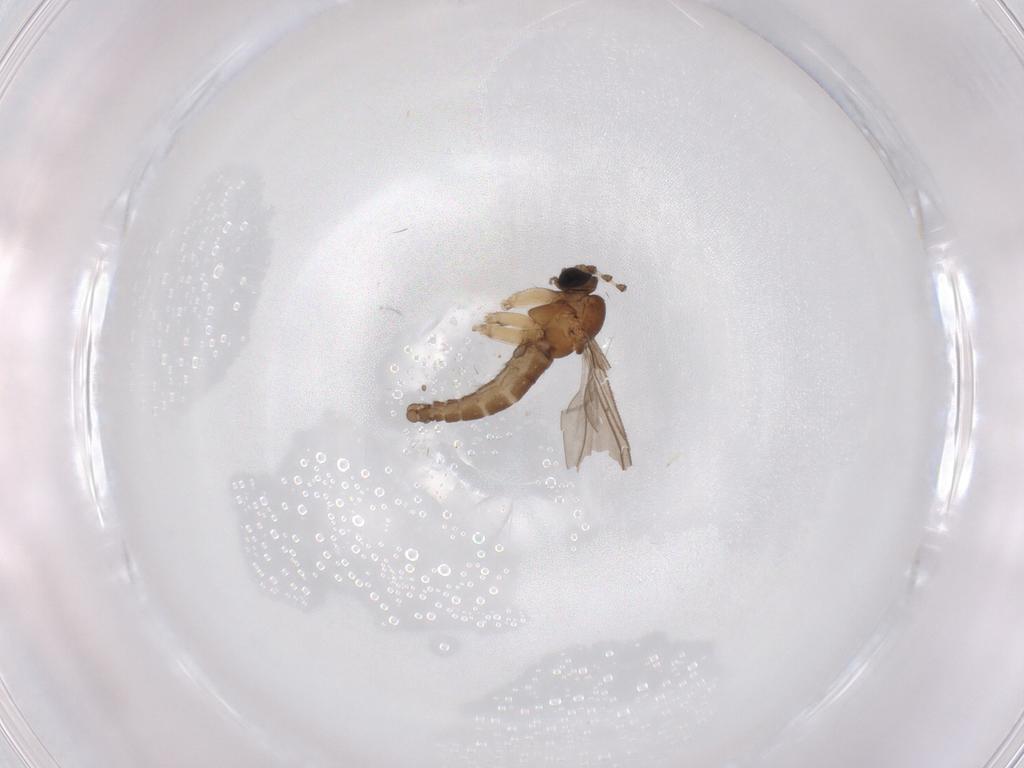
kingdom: Animalia
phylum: Arthropoda
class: Insecta
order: Diptera
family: Sciaridae
